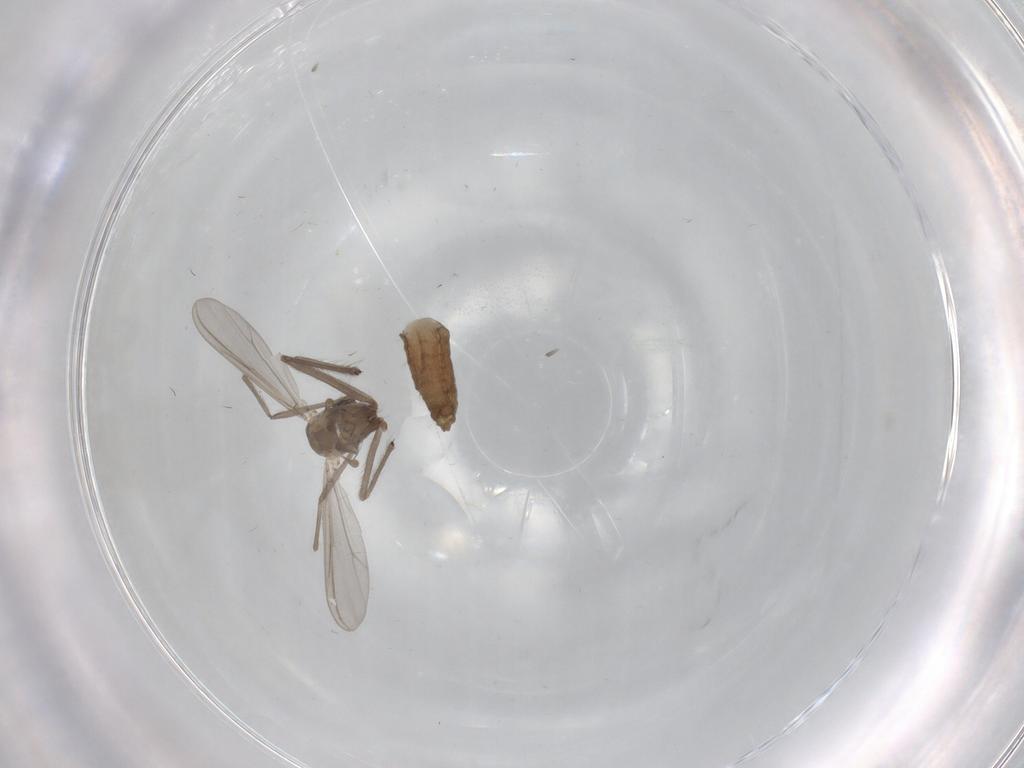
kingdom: Animalia
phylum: Arthropoda
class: Insecta
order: Diptera
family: Chironomidae
